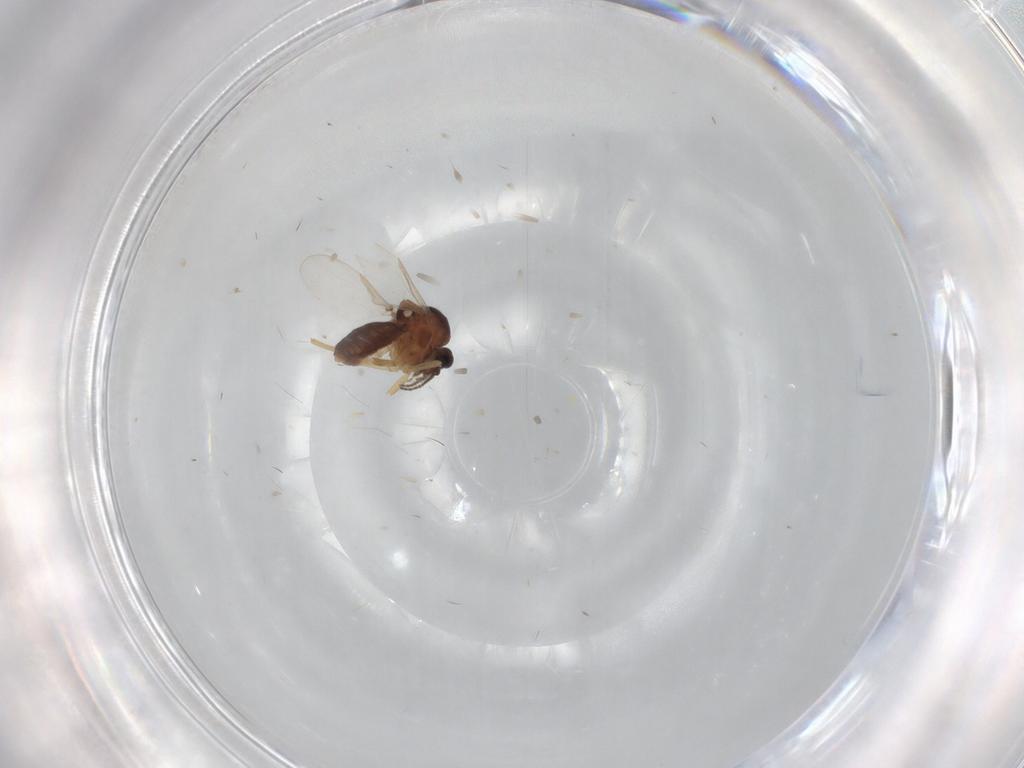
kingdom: Animalia
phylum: Arthropoda
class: Insecta
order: Diptera
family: Ceratopogonidae
